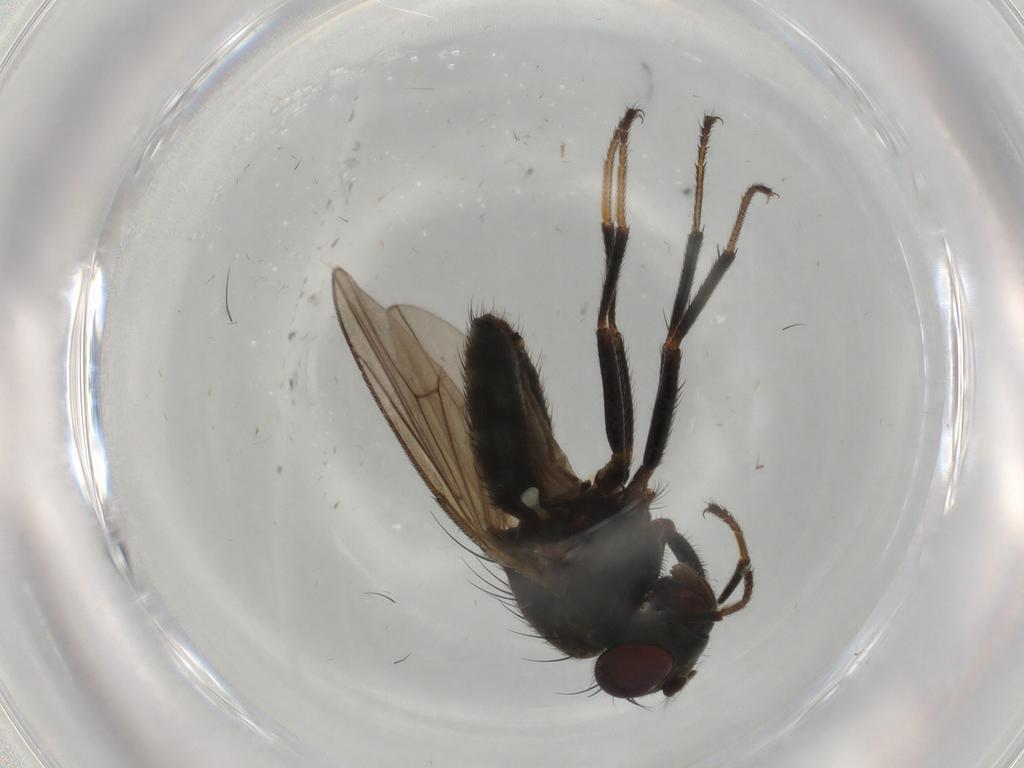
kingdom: Animalia
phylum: Arthropoda
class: Insecta
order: Diptera
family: Ephydridae
